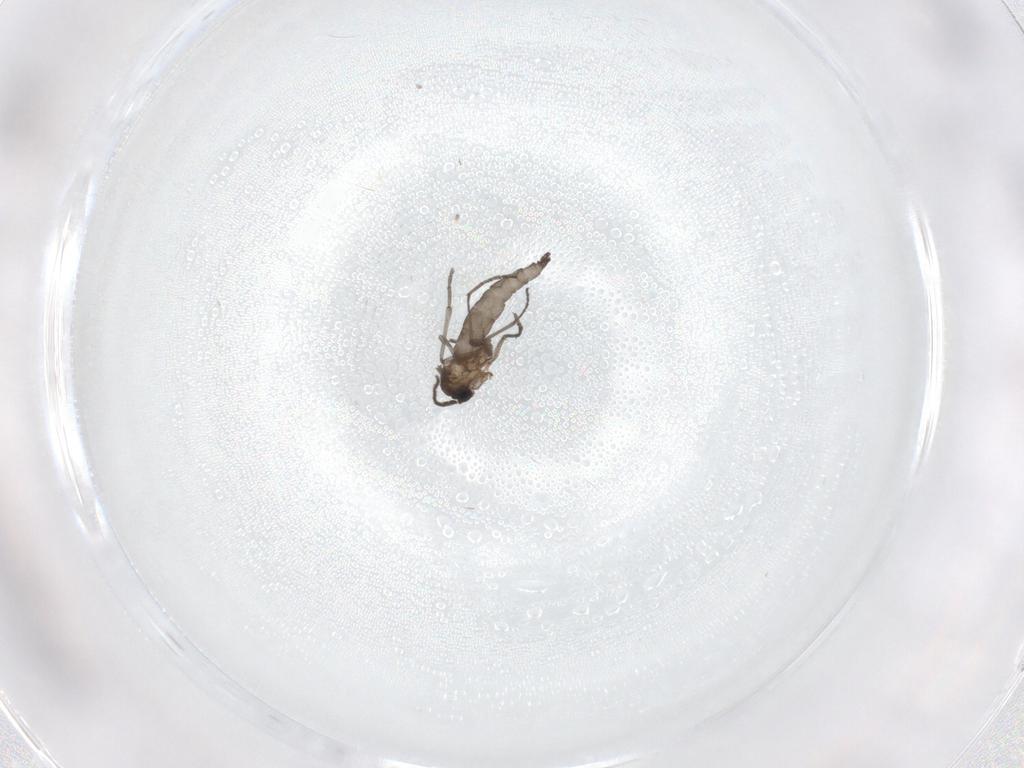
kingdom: Animalia
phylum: Arthropoda
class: Insecta
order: Diptera
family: Sciaridae
